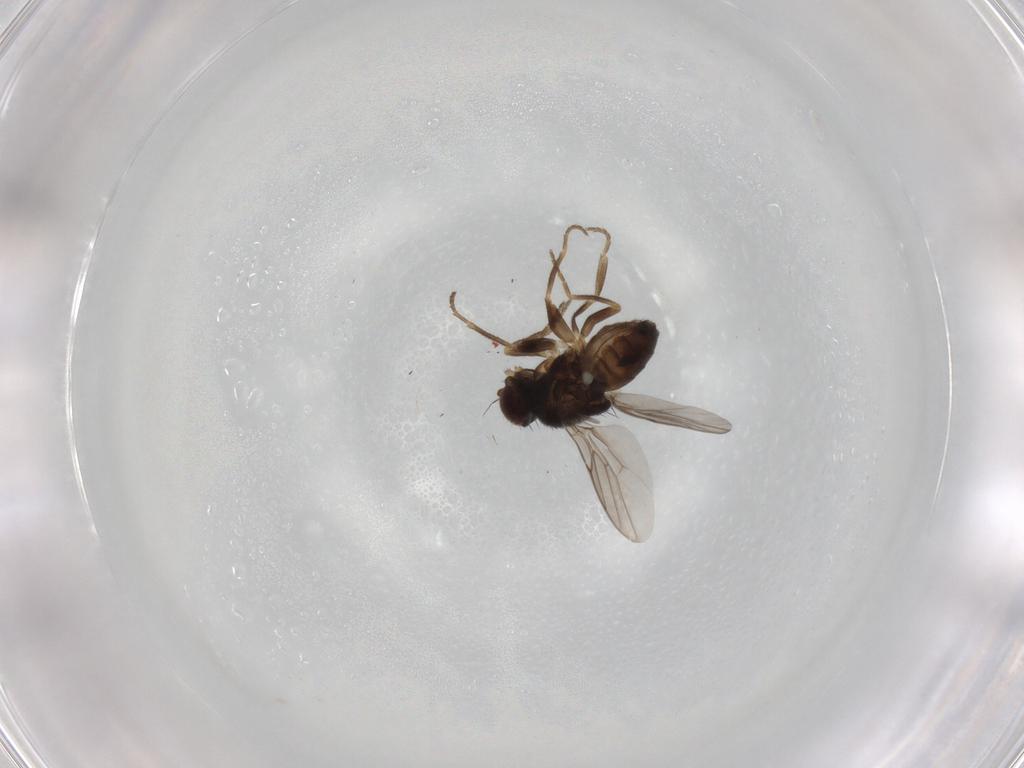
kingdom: Animalia
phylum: Arthropoda
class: Insecta
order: Diptera
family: Chloropidae
